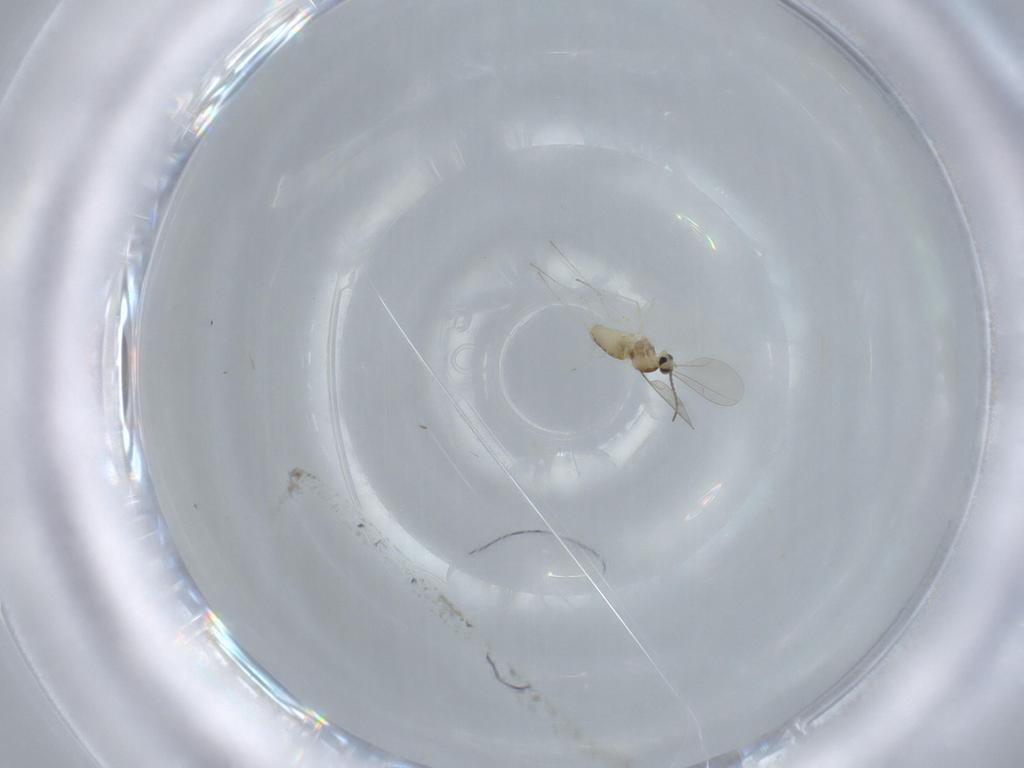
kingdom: Animalia
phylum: Arthropoda
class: Insecta
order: Diptera
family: Cecidomyiidae
